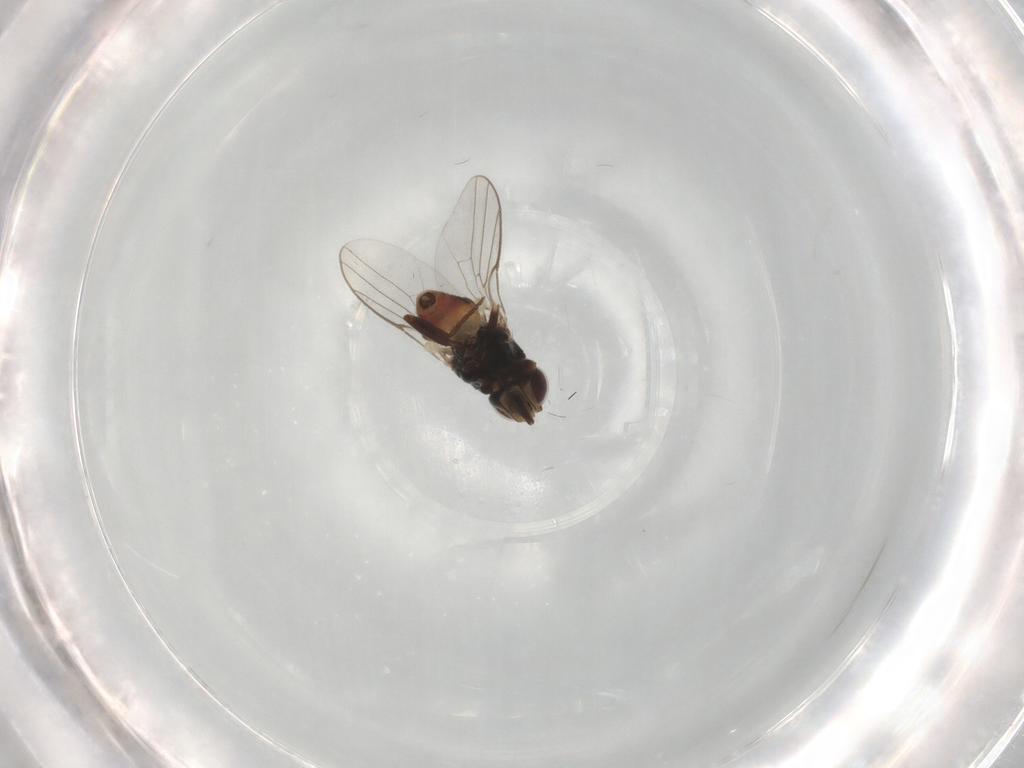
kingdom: Animalia
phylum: Arthropoda
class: Insecta
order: Diptera
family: Chloropidae
